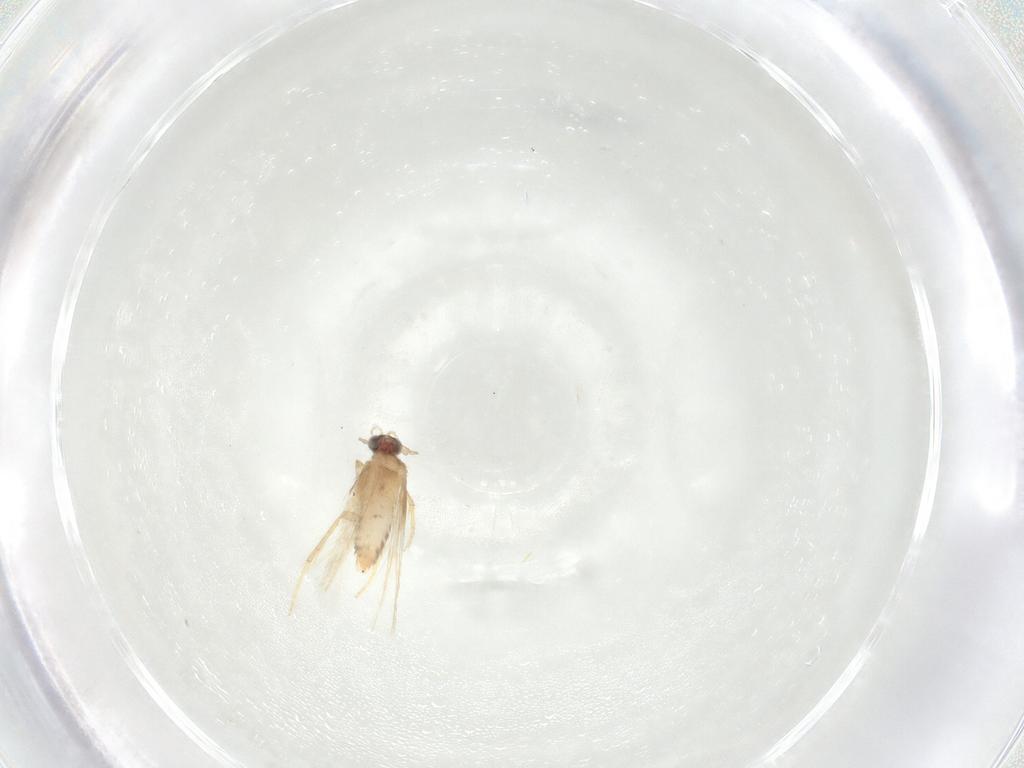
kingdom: Animalia
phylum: Arthropoda
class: Insecta
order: Lepidoptera
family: Nepticulidae
